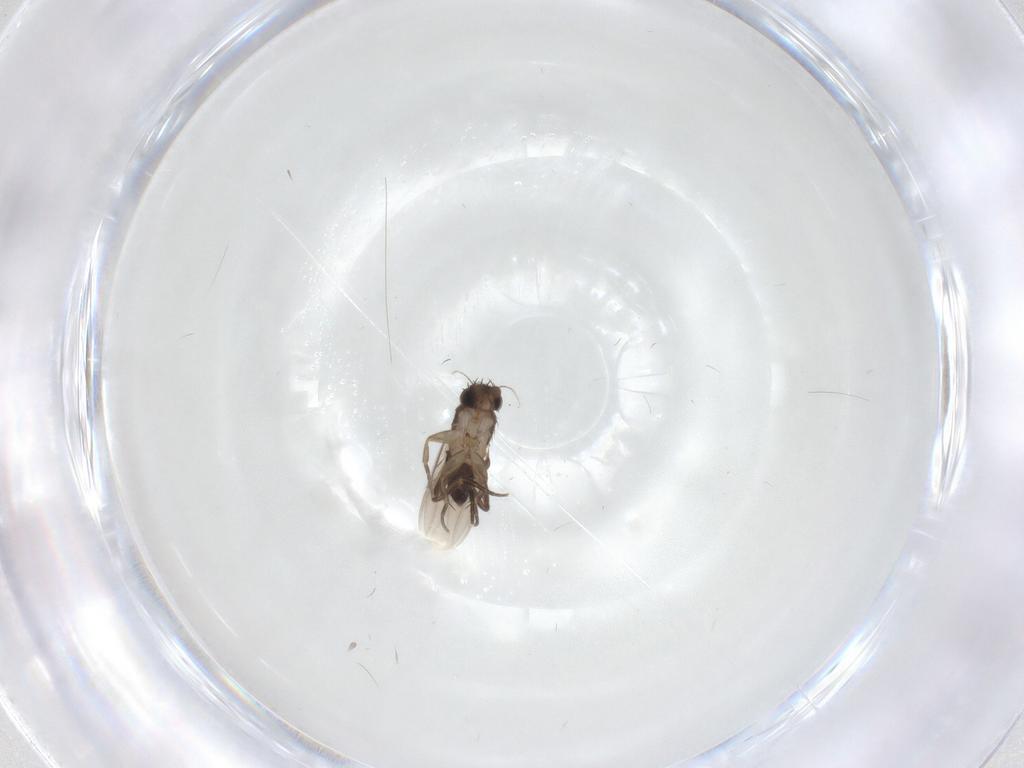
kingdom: Animalia
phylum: Arthropoda
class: Insecta
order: Diptera
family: Phoridae
